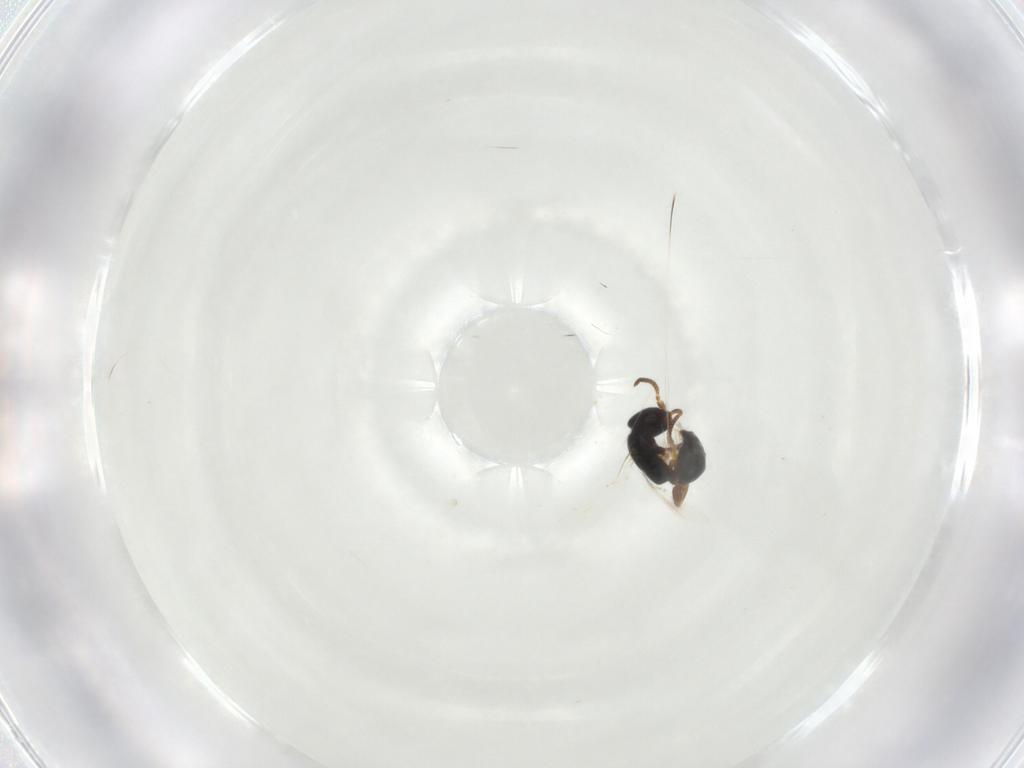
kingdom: Animalia
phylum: Arthropoda
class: Insecta
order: Hymenoptera
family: Bethylidae
